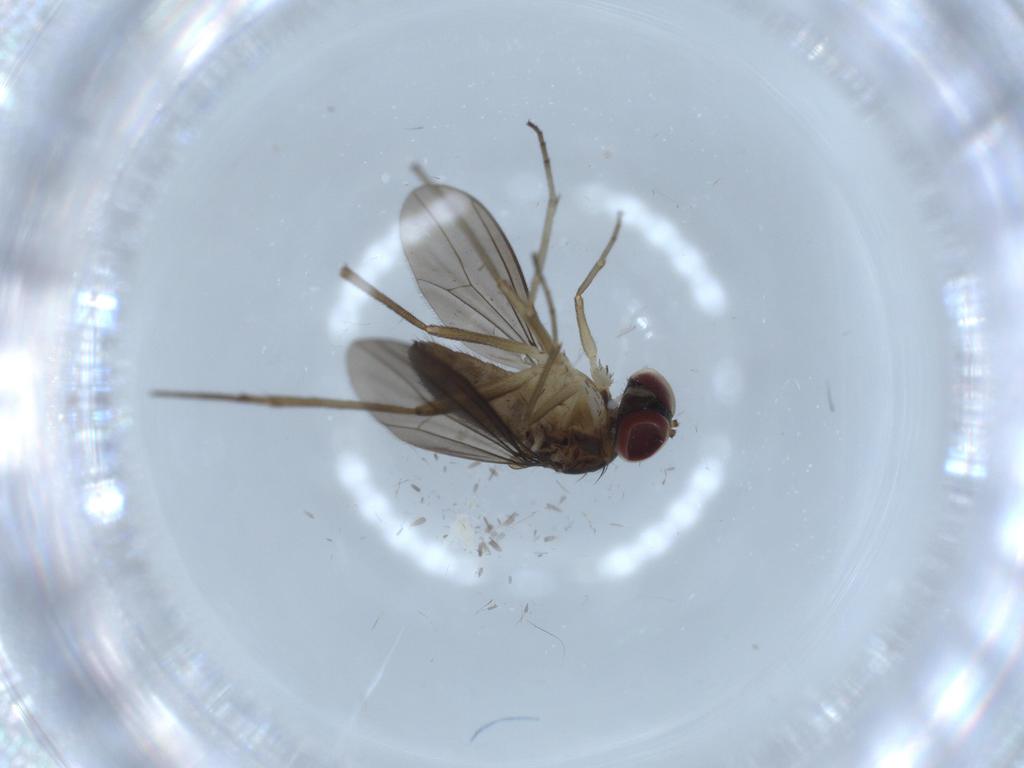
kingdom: Animalia
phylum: Arthropoda
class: Insecta
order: Diptera
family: Dolichopodidae
